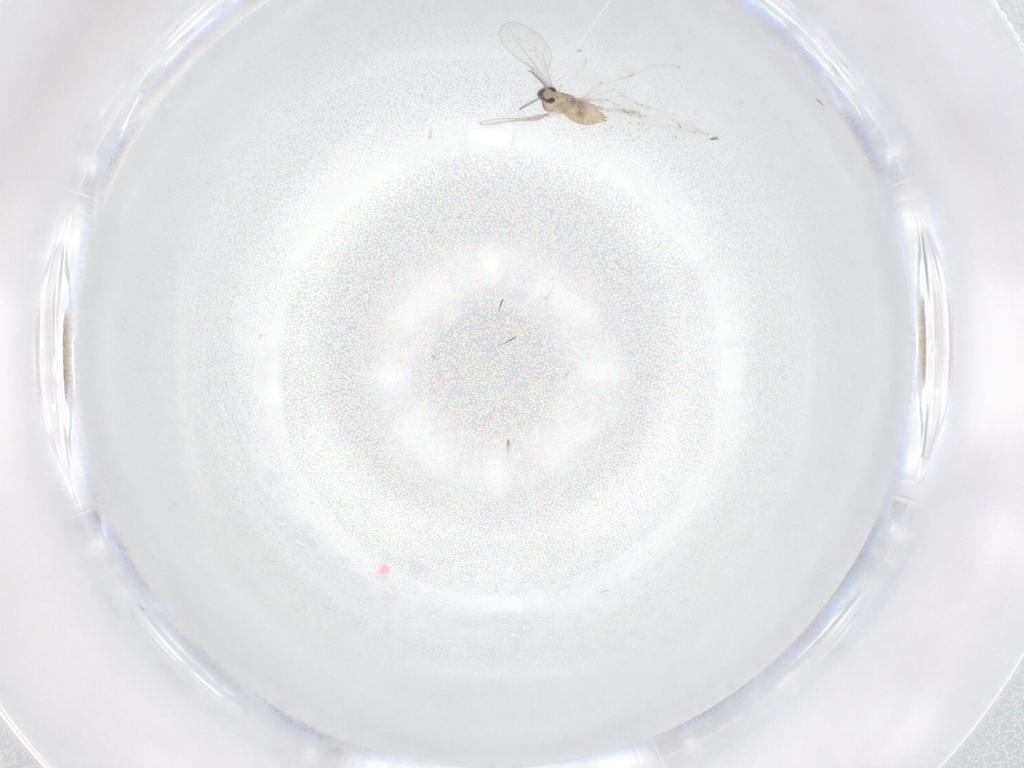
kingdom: Animalia
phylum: Arthropoda
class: Insecta
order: Diptera
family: Cecidomyiidae
